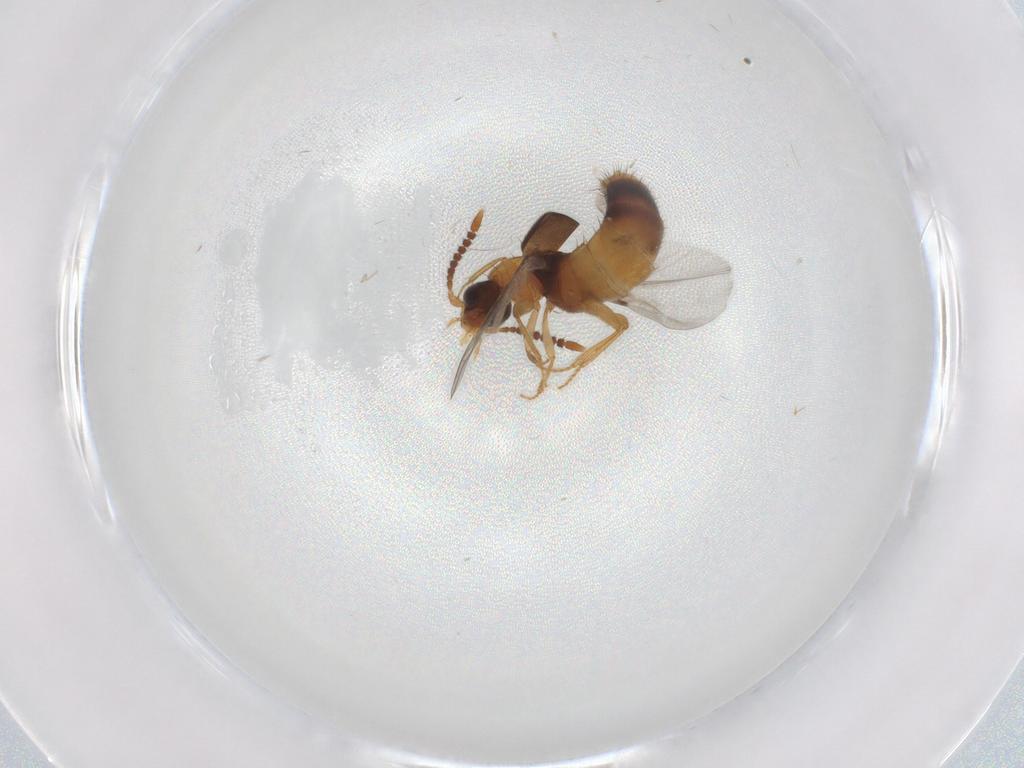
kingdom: Animalia
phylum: Arthropoda
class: Insecta
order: Coleoptera
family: Staphylinidae
